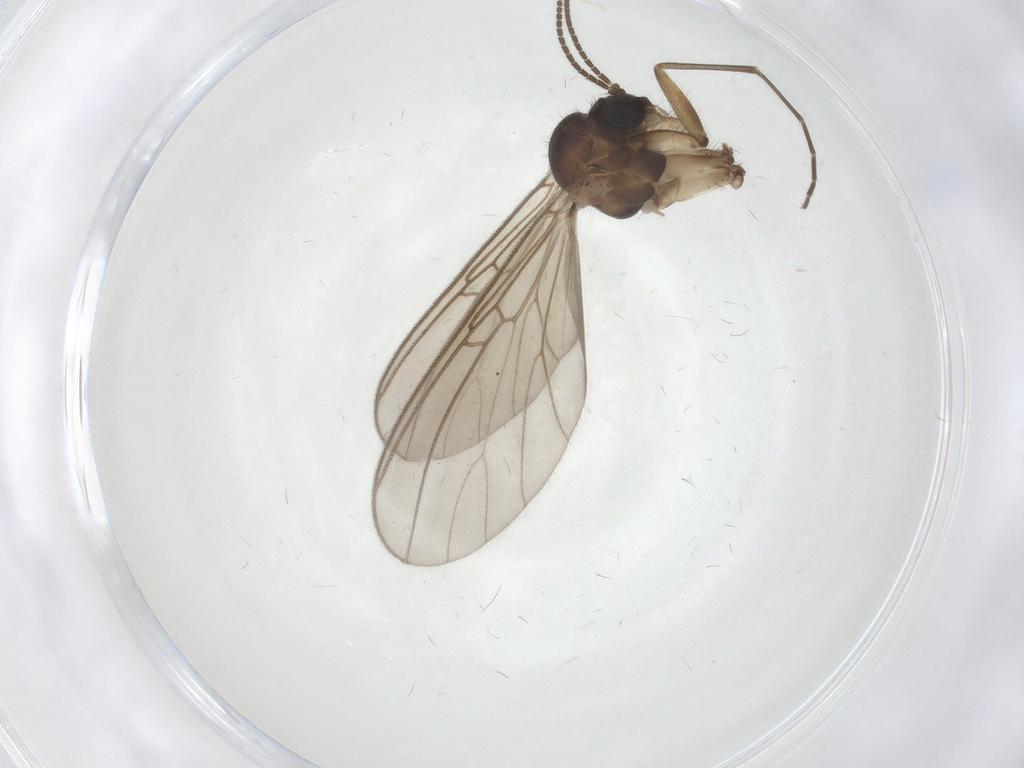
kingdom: Animalia
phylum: Arthropoda
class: Insecta
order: Diptera
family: Mycetophilidae
